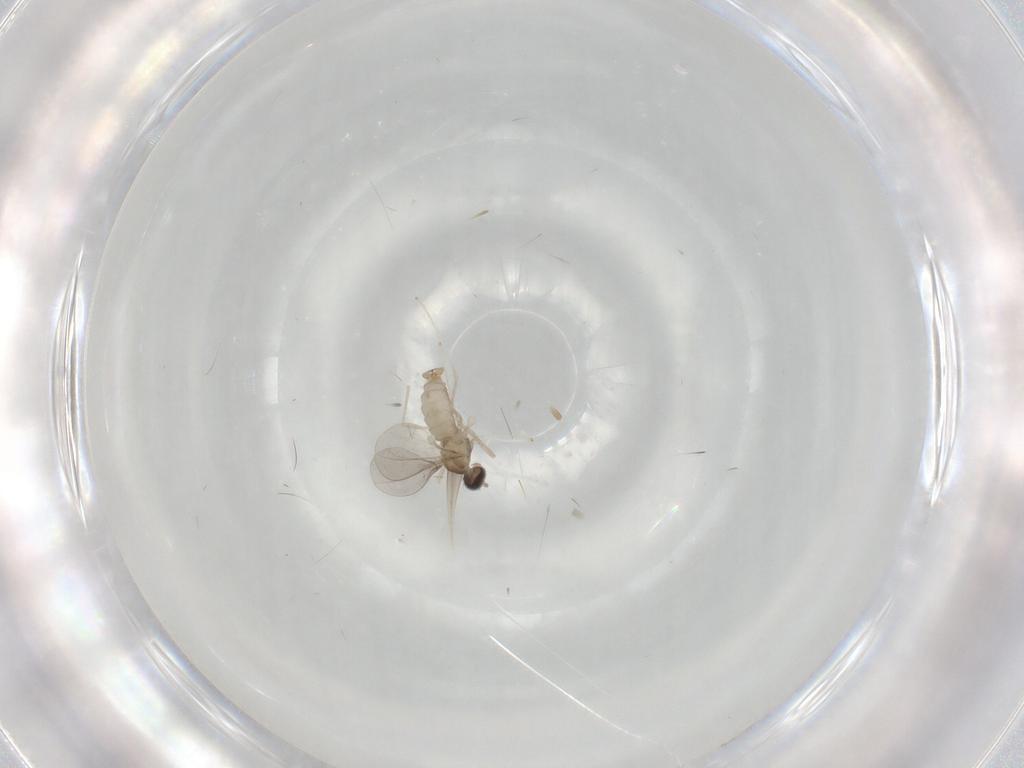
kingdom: Animalia
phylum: Arthropoda
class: Insecta
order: Diptera
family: Cecidomyiidae
